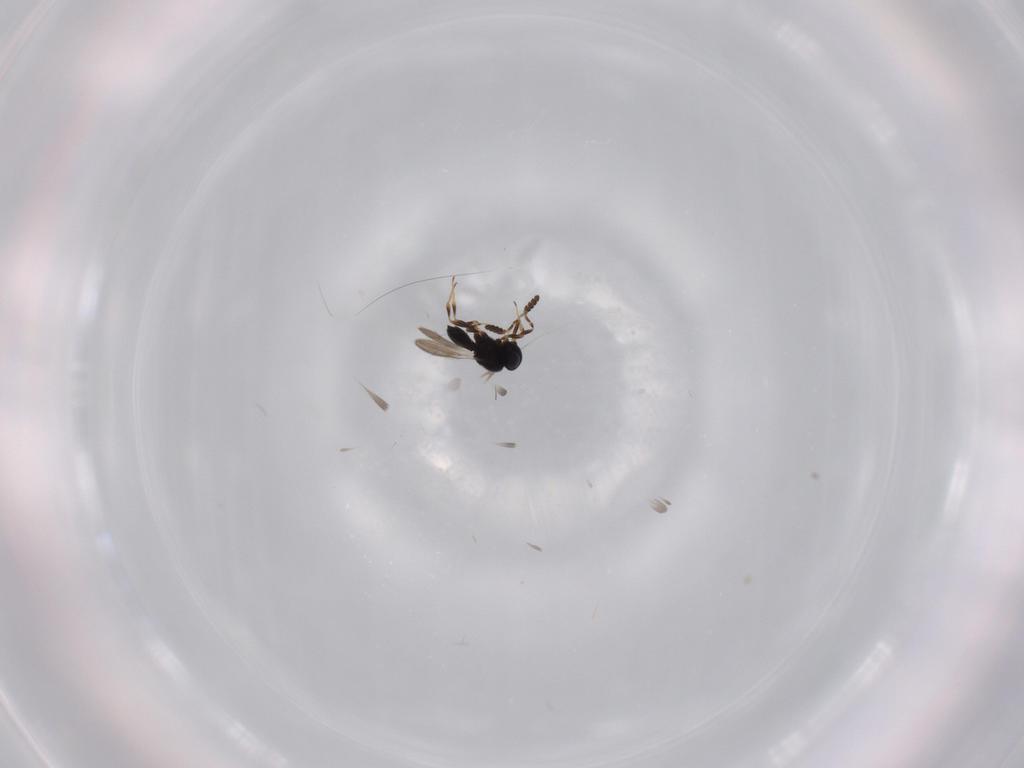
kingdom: Animalia
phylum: Arthropoda
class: Insecta
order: Hymenoptera
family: Scelionidae
